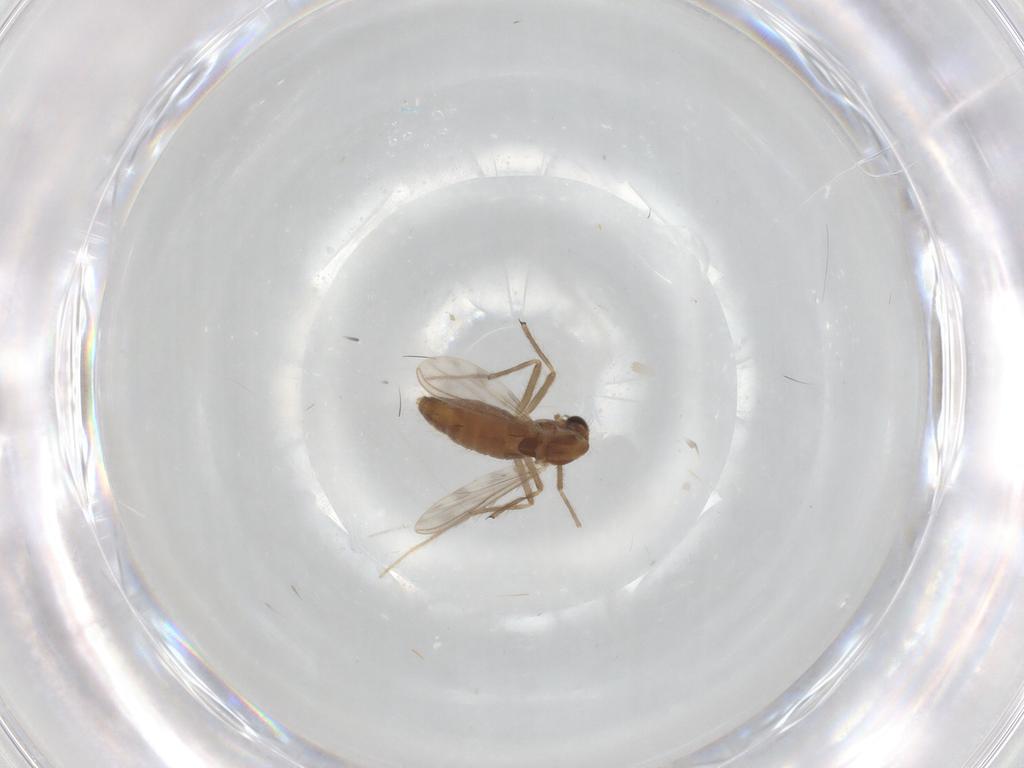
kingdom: Animalia
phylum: Arthropoda
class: Insecta
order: Diptera
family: Chironomidae
